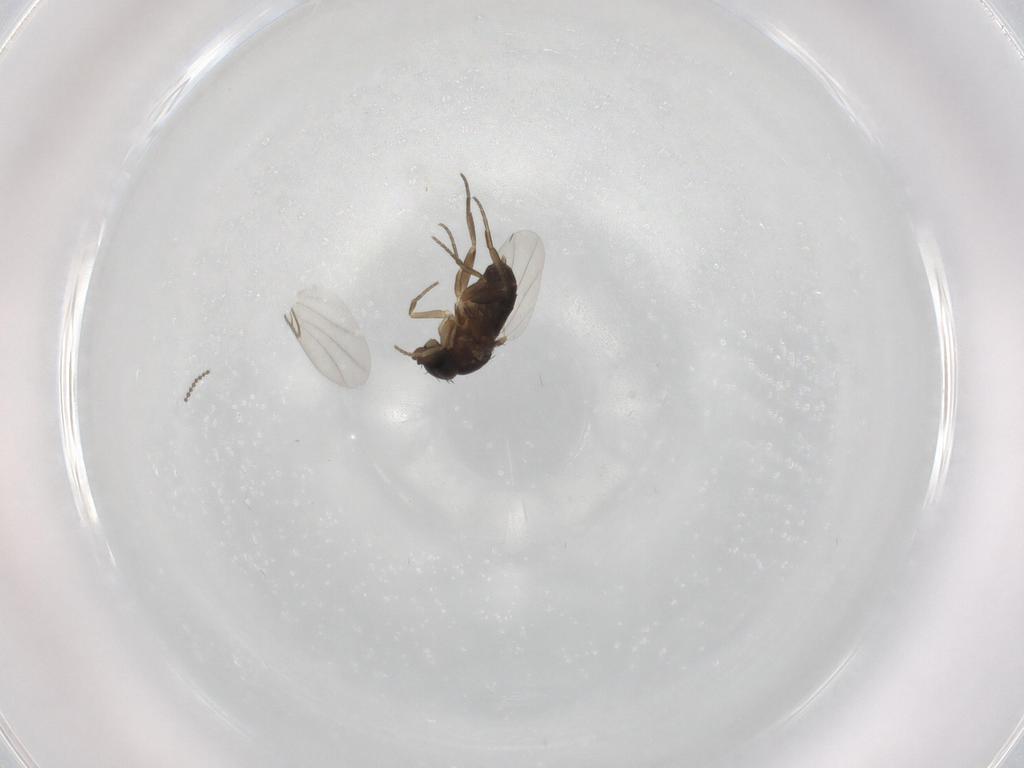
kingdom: Animalia
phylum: Arthropoda
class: Insecta
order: Diptera
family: Phoridae
